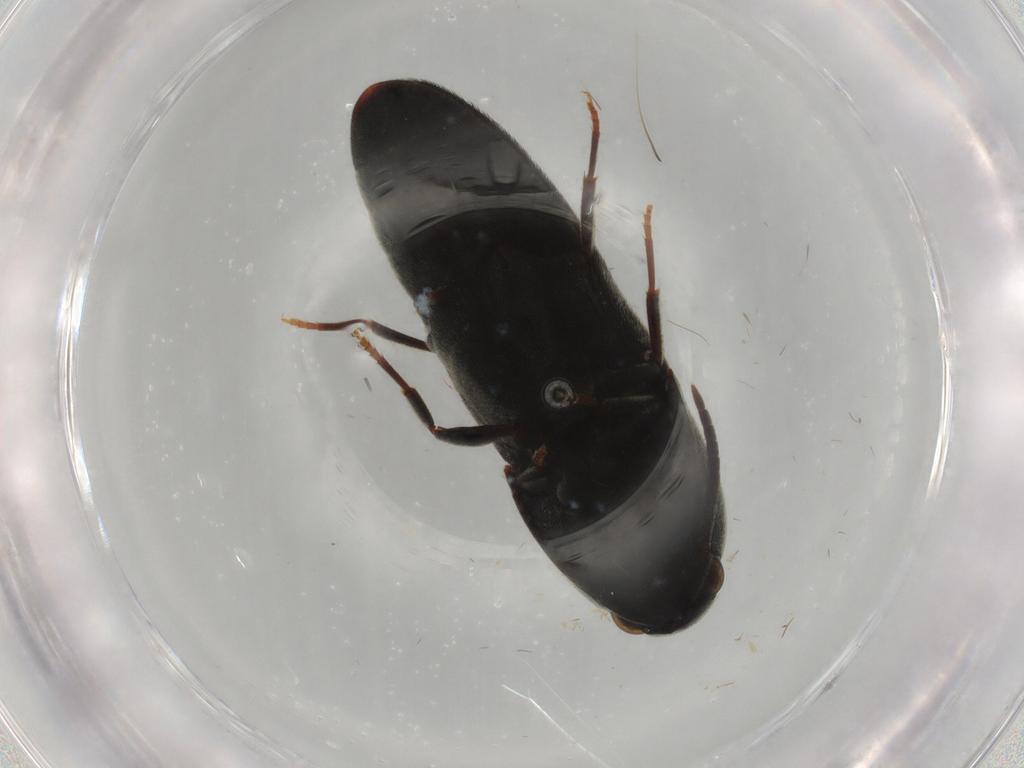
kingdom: Animalia
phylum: Arthropoda
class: Insecta
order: Coleoptera
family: Eucnemidae
